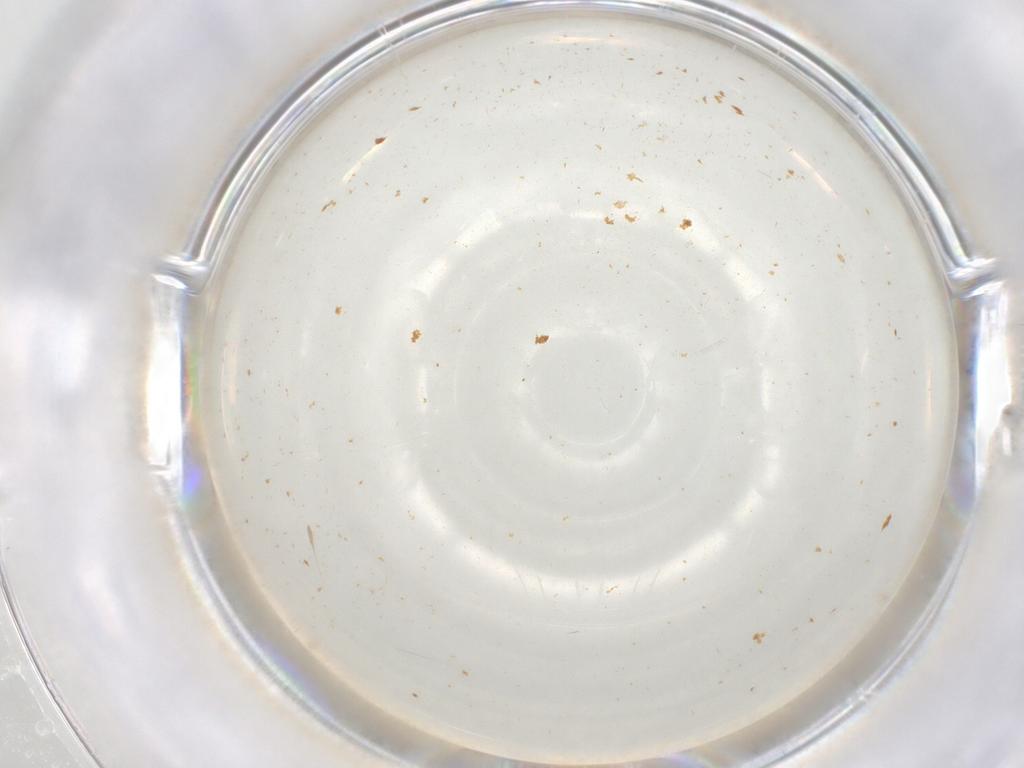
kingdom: Animalia
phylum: Arthropoda
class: Insecta
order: Diptera
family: Sciaridae
